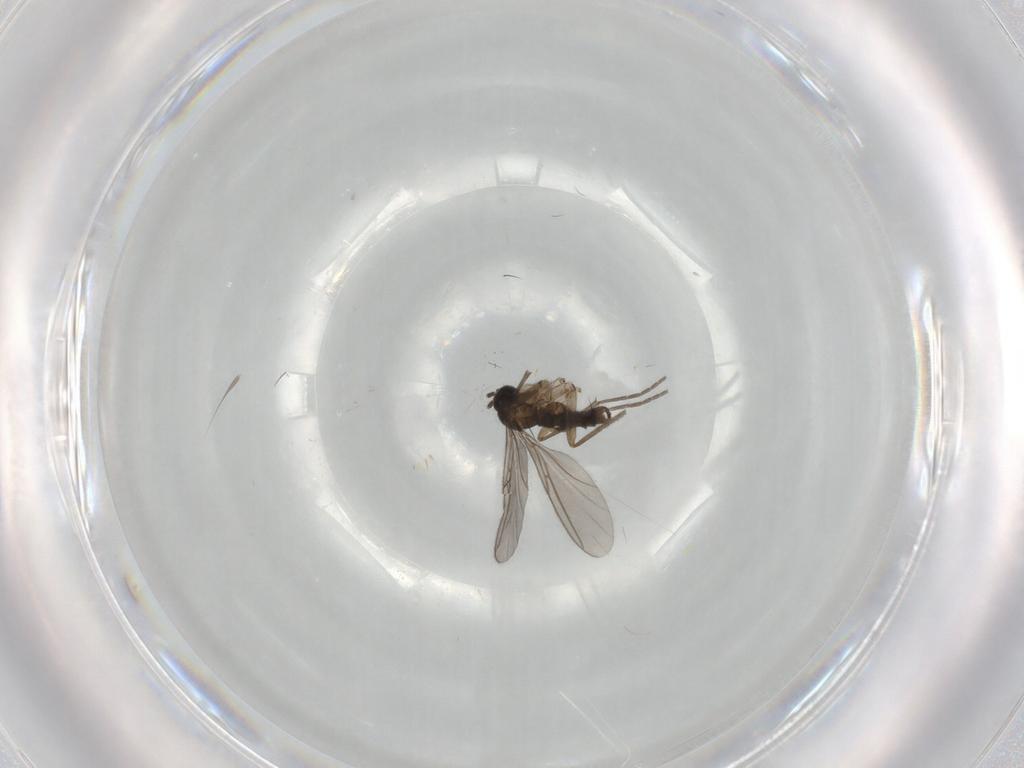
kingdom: Animalia
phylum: Arthropoda
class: Insecta
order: Diptera
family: Sciaridae
